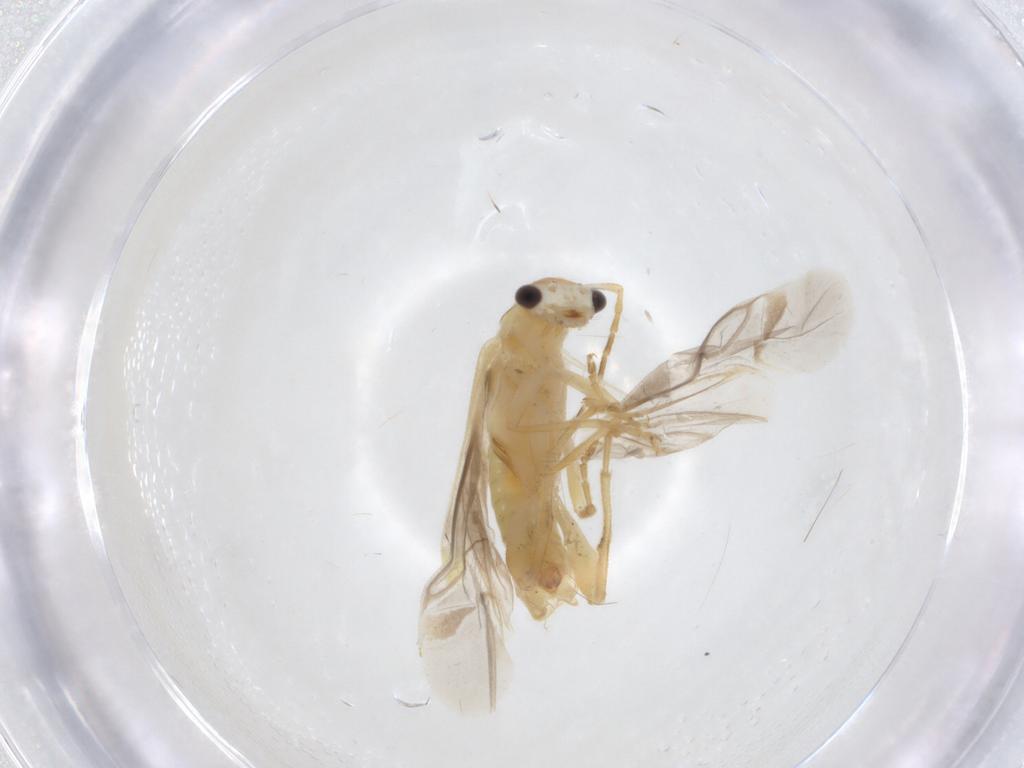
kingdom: Animalia
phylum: Arthropoda
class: Insecta
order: Coleoptera
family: Cantharidae
